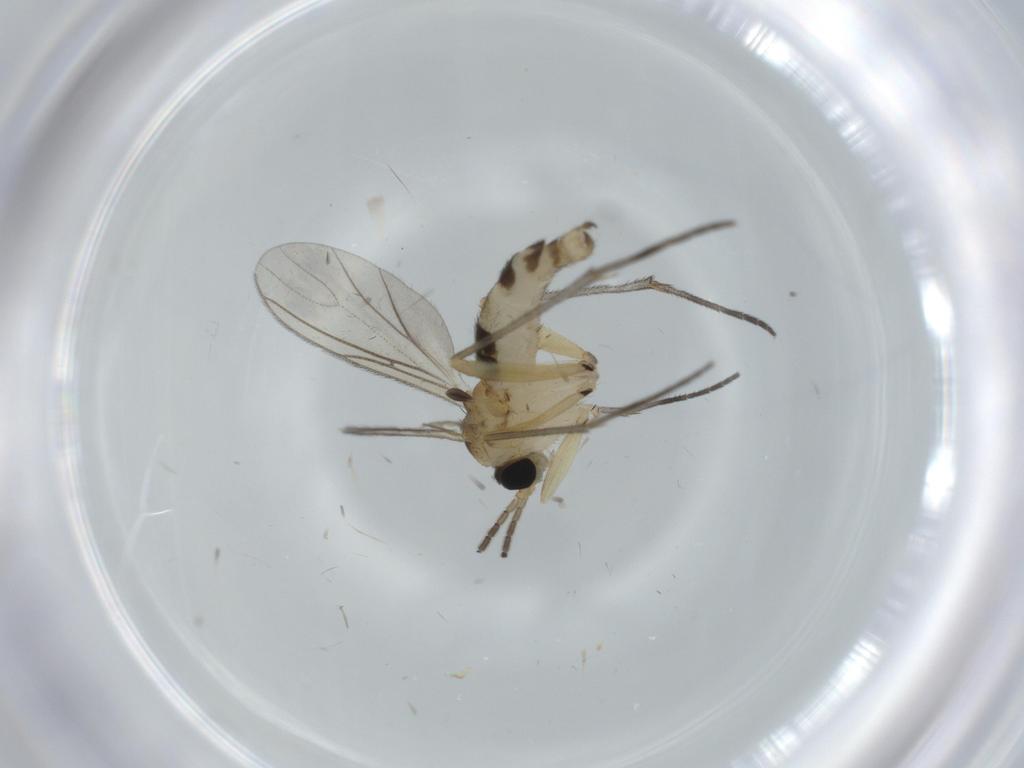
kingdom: Animalia
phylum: Arthropoda
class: Insecta
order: Diptera
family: Sciaridae
